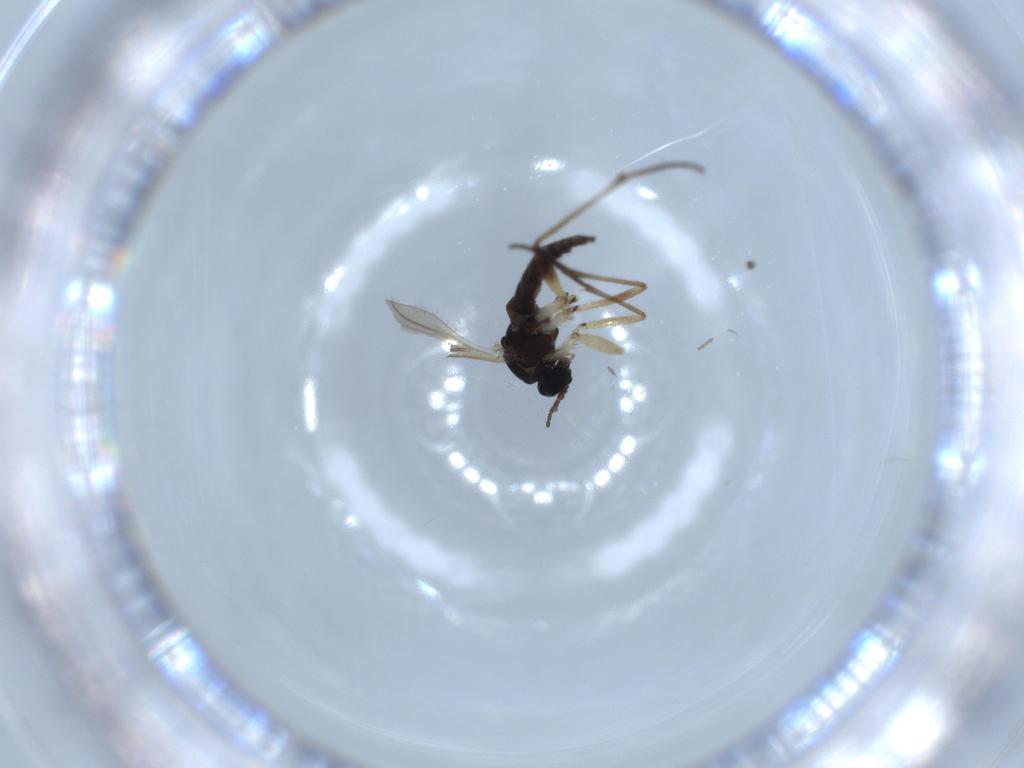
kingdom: Animalia
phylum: Arthropoda
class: Insecta
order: Diptera
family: Sciaridae
